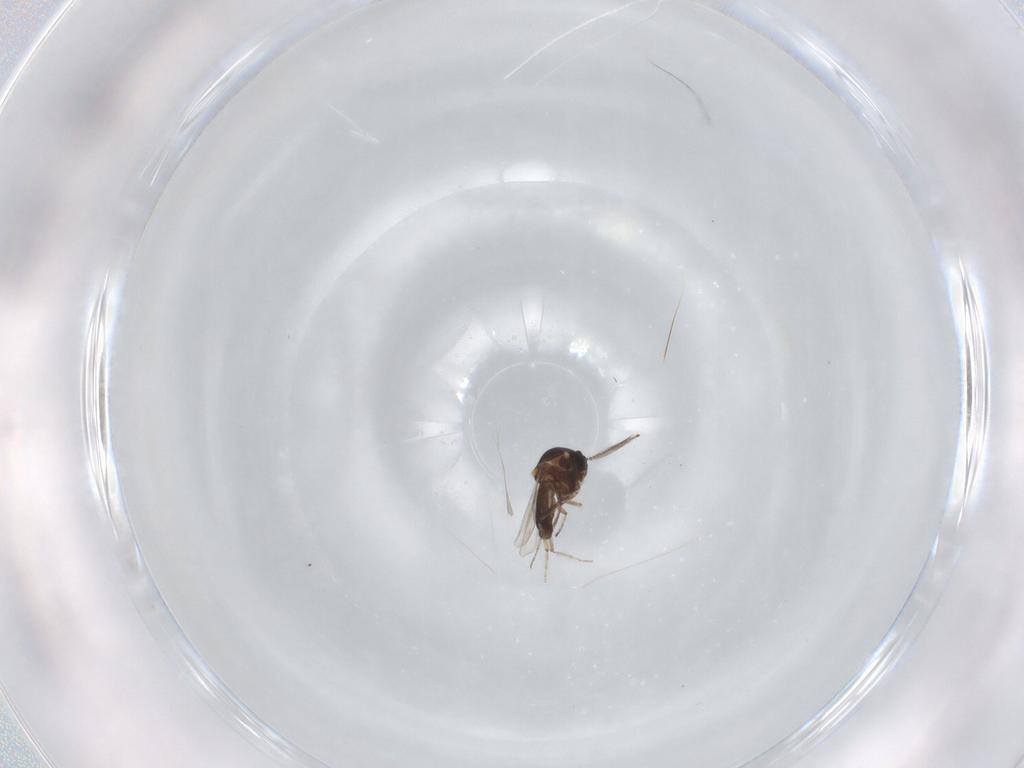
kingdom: Animalia
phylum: Arthropoda
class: Insecta
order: Diptera
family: Ceratopogonidae
